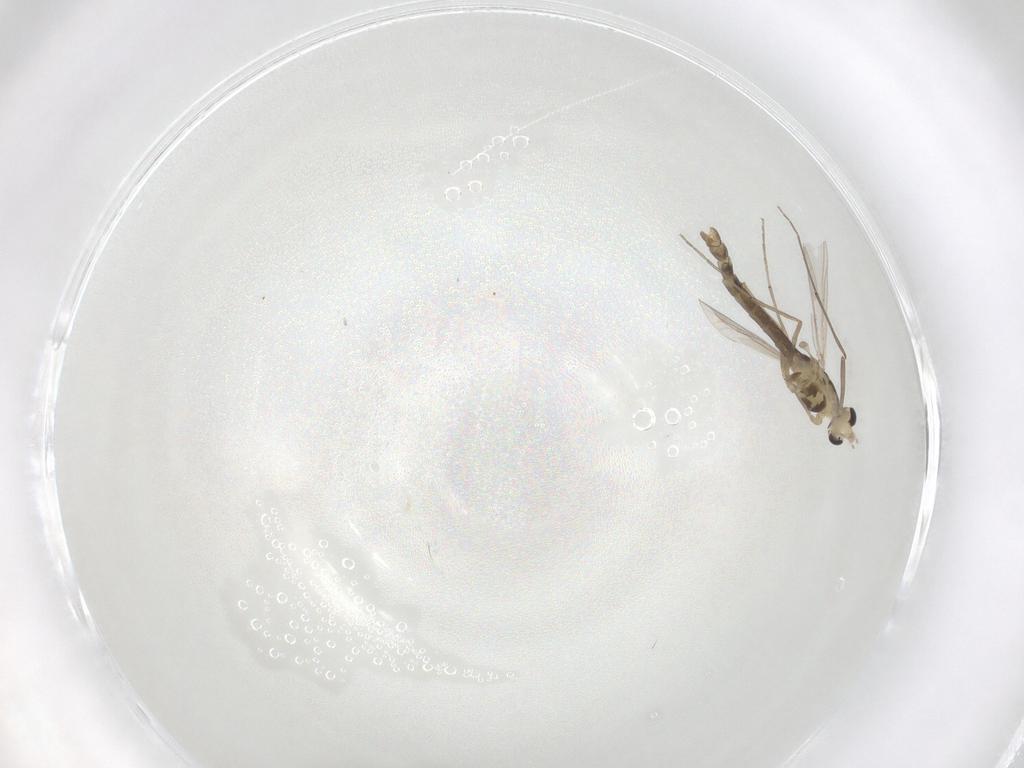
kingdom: Animalia
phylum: Arthropoda
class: Insecta
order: Diptera
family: Chironomidae
